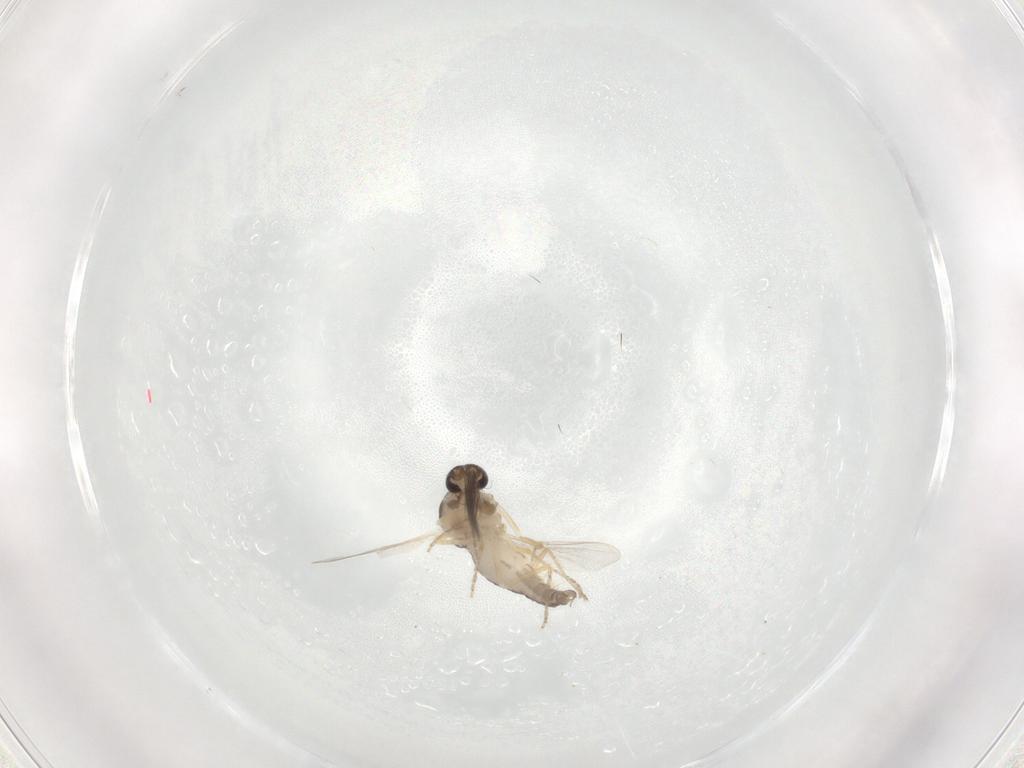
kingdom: Animalia
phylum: Arthropoda
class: Insecta
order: Diptera
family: Ceratopogonidae
